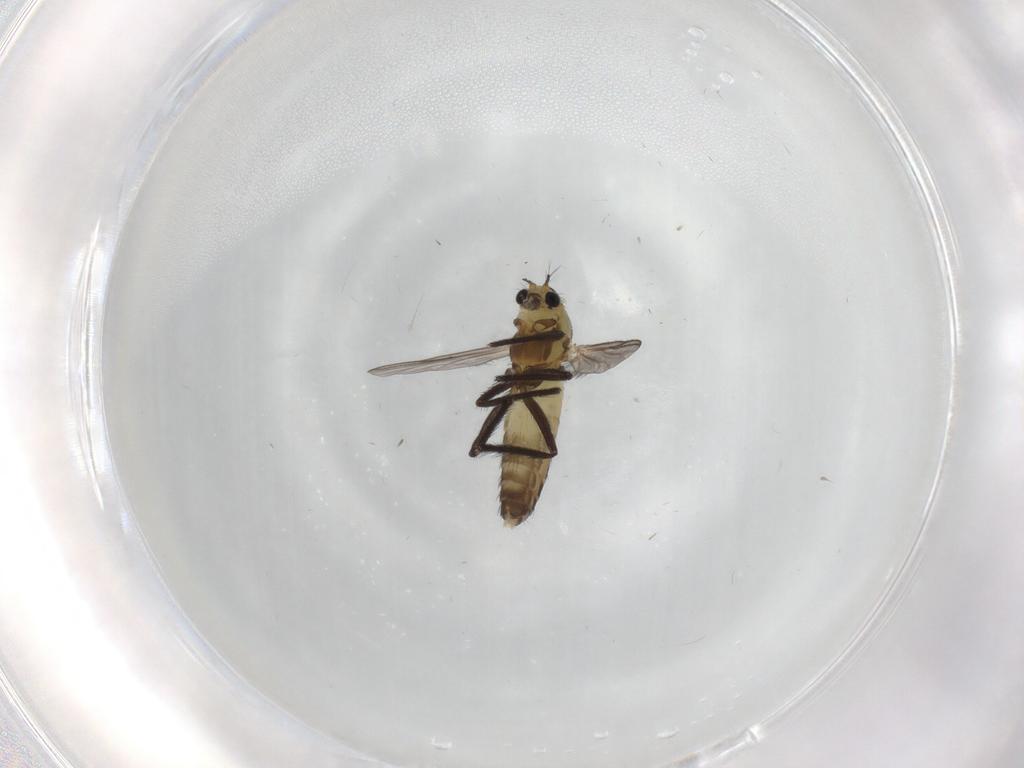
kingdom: Animalia
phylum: Arthropoda
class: Insecta
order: Diptera
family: Chironomidae
